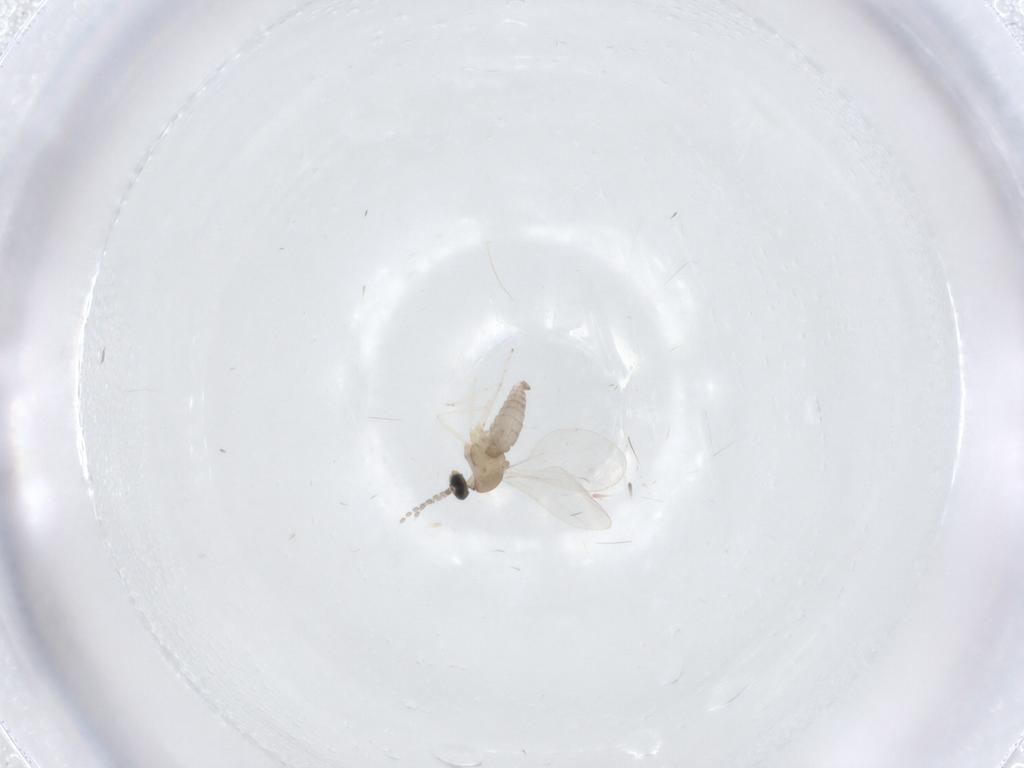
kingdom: Animalia
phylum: Arthropoda
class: Insecta
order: Diptera
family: Cecidomyiidae
